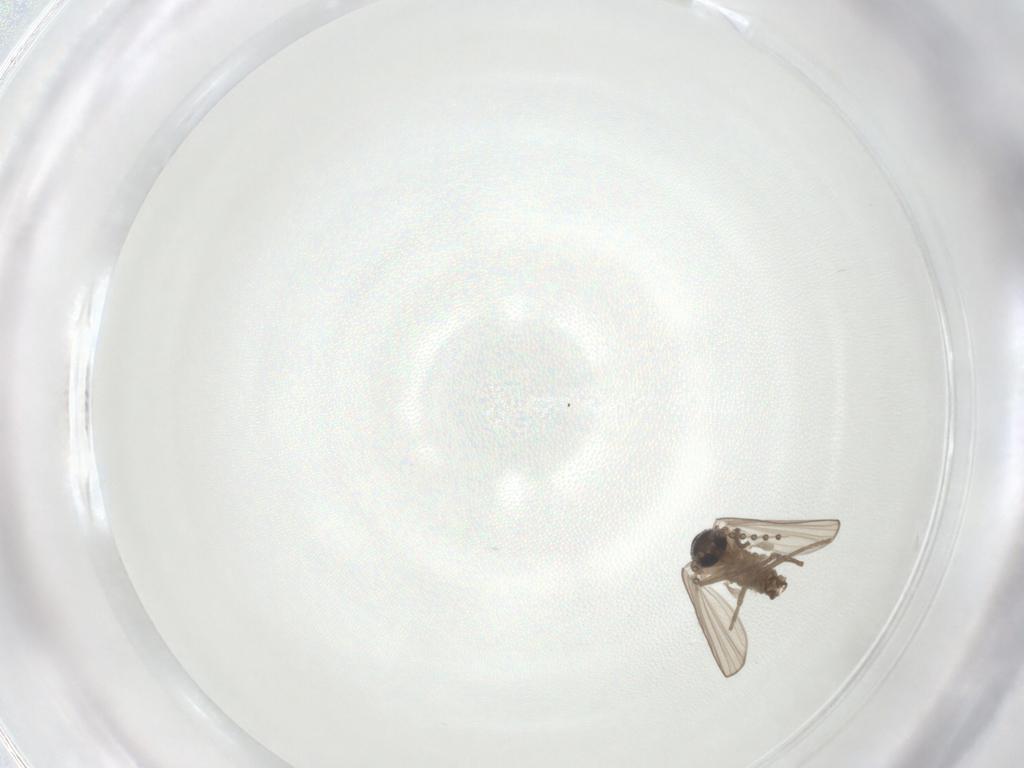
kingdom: Animalia
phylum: Arthropoda
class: Insecta
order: Diptera
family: Psychodidae
